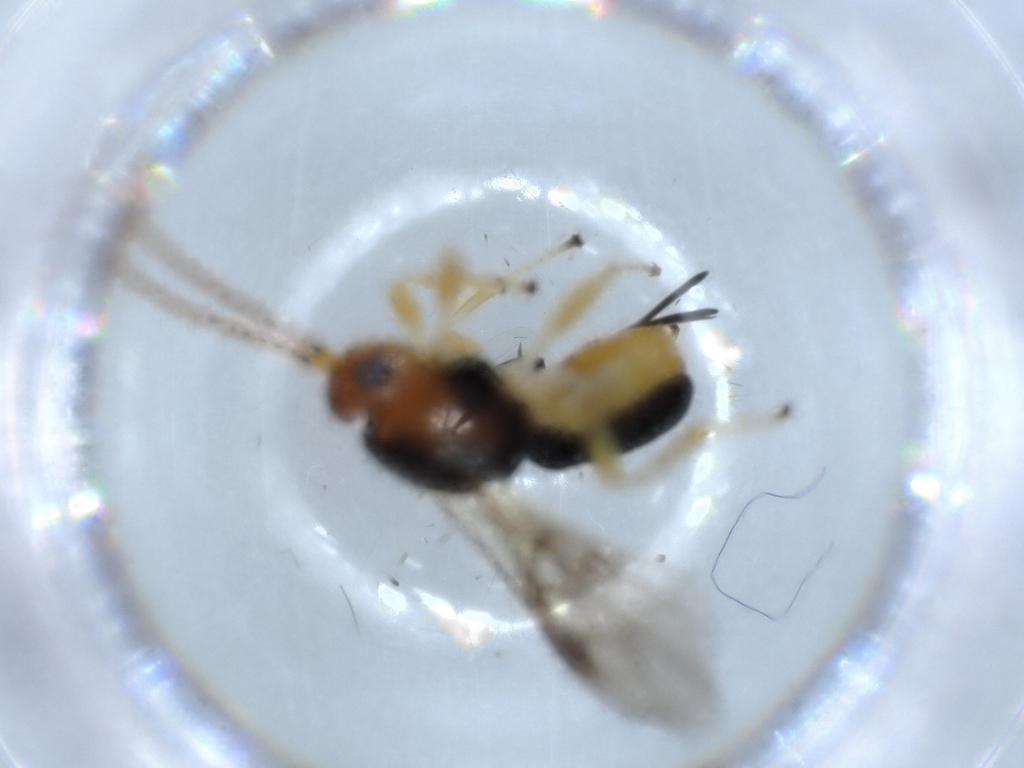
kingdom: Animalia
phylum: Arthropoda
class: Insecta
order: Hymenoptera
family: Braconidae
